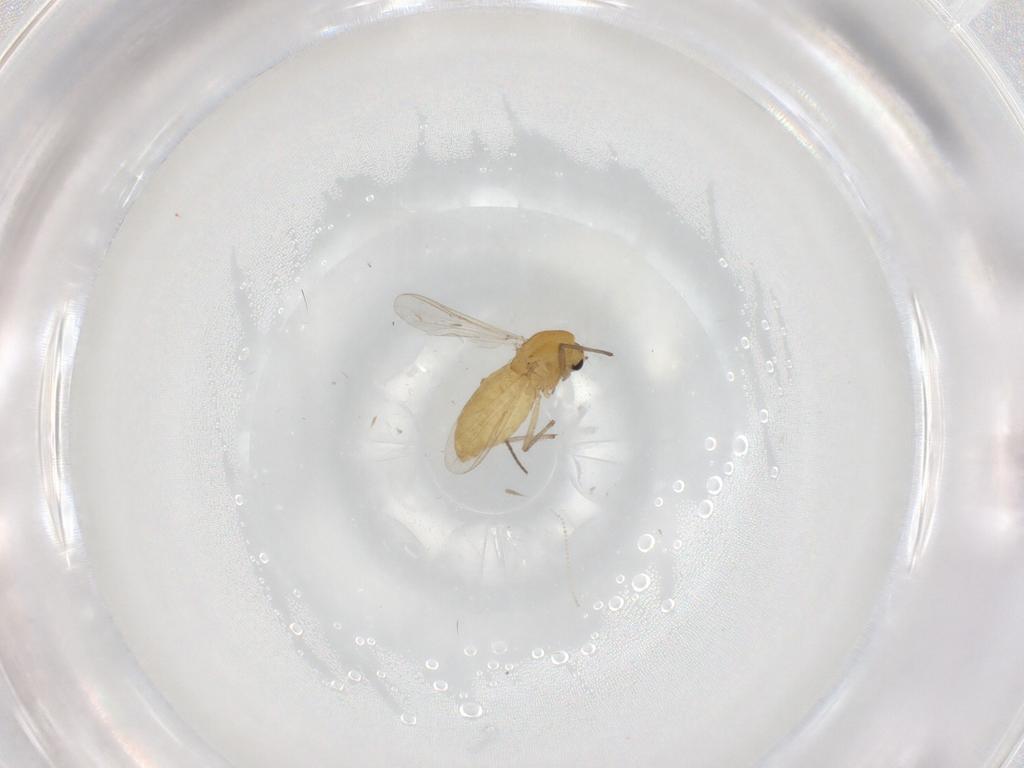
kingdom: Animalia
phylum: Arthropoda
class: Insecta
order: Diptera
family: Chironomidae
